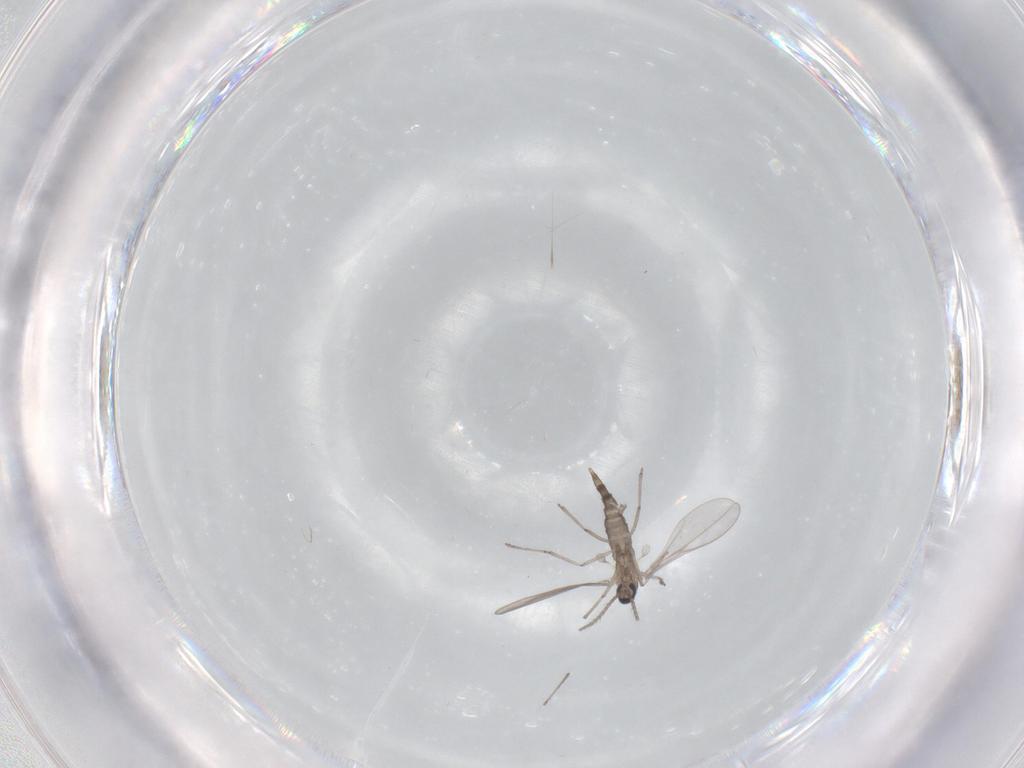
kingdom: Animalia
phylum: Arthropoda
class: Insecta
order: Diptera
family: Cecidomyiidae
